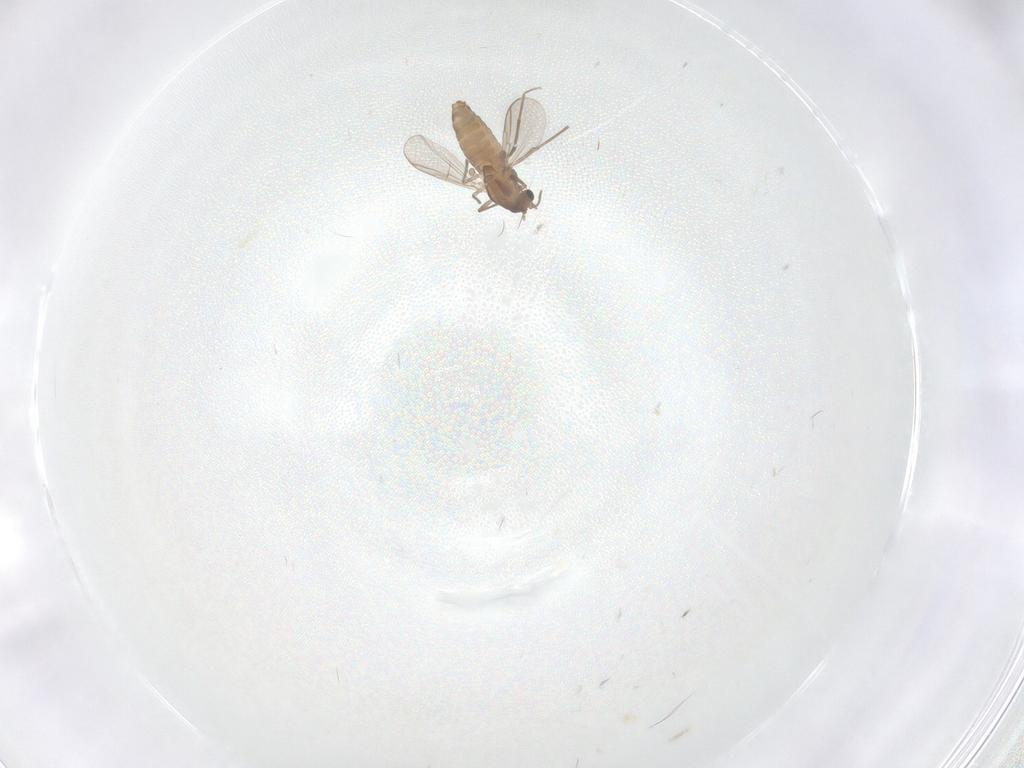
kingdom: Animalia
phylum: Arthropoda
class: Insecta
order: Diptera
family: Chironomidae
